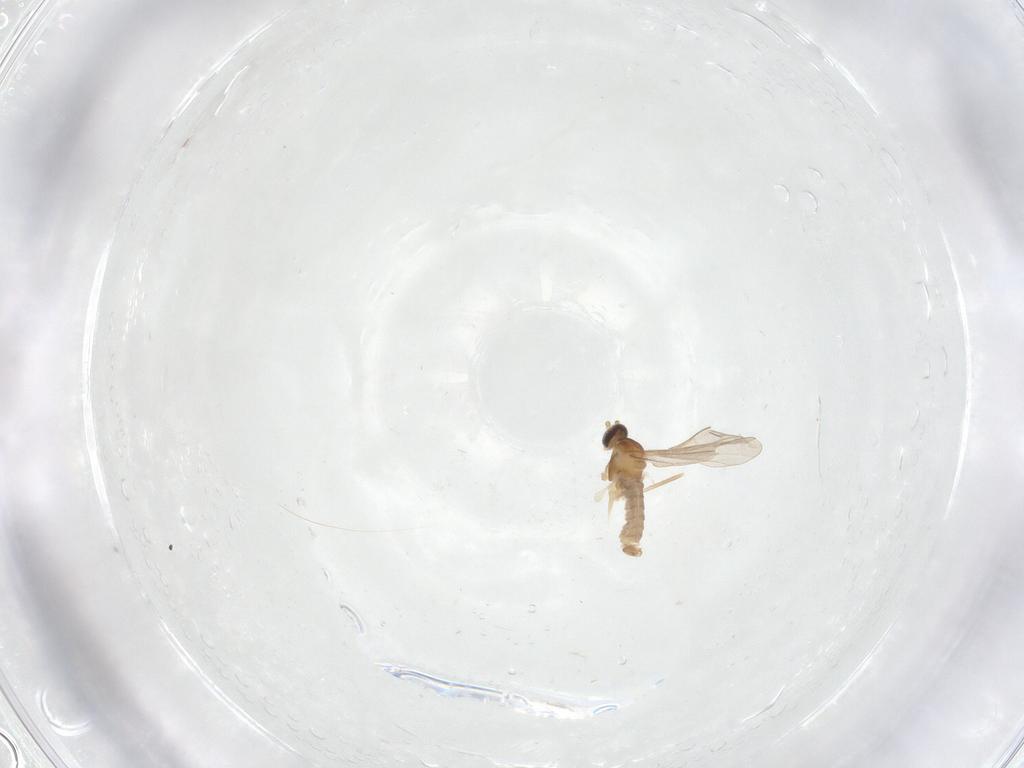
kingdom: Animalia
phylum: Arthropoda
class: Insecta
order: Diptera
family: Cecidomyiidae
